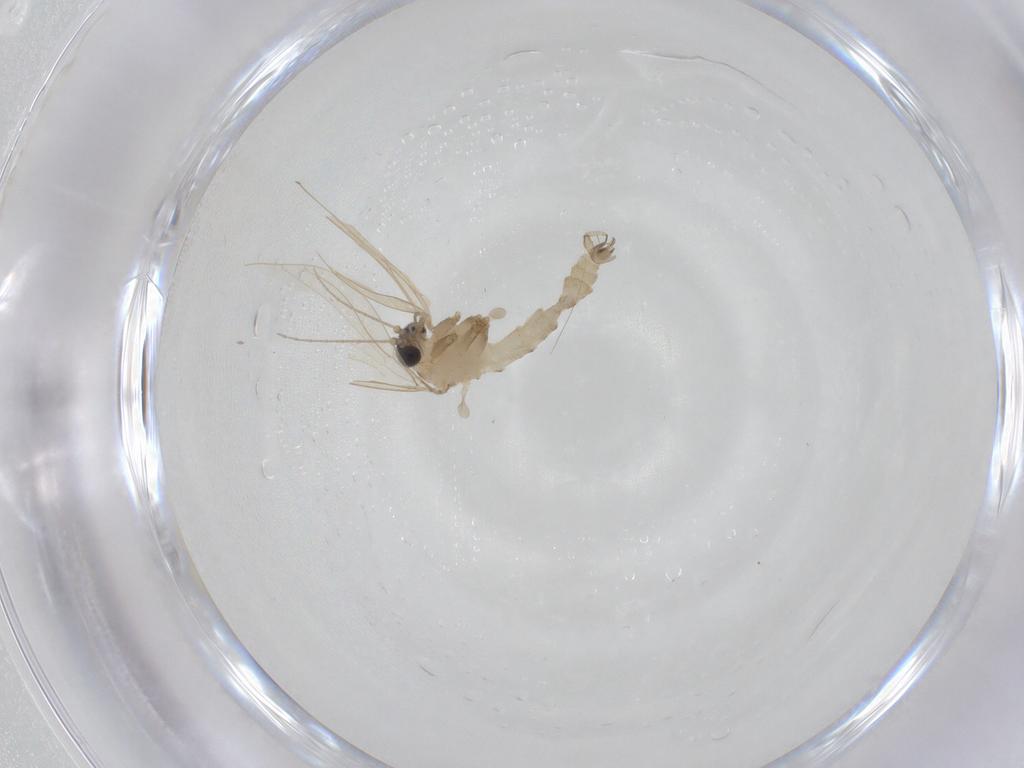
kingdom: Animalia
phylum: Arthropoda
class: Insecta
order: Diptera
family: Psychodidae
